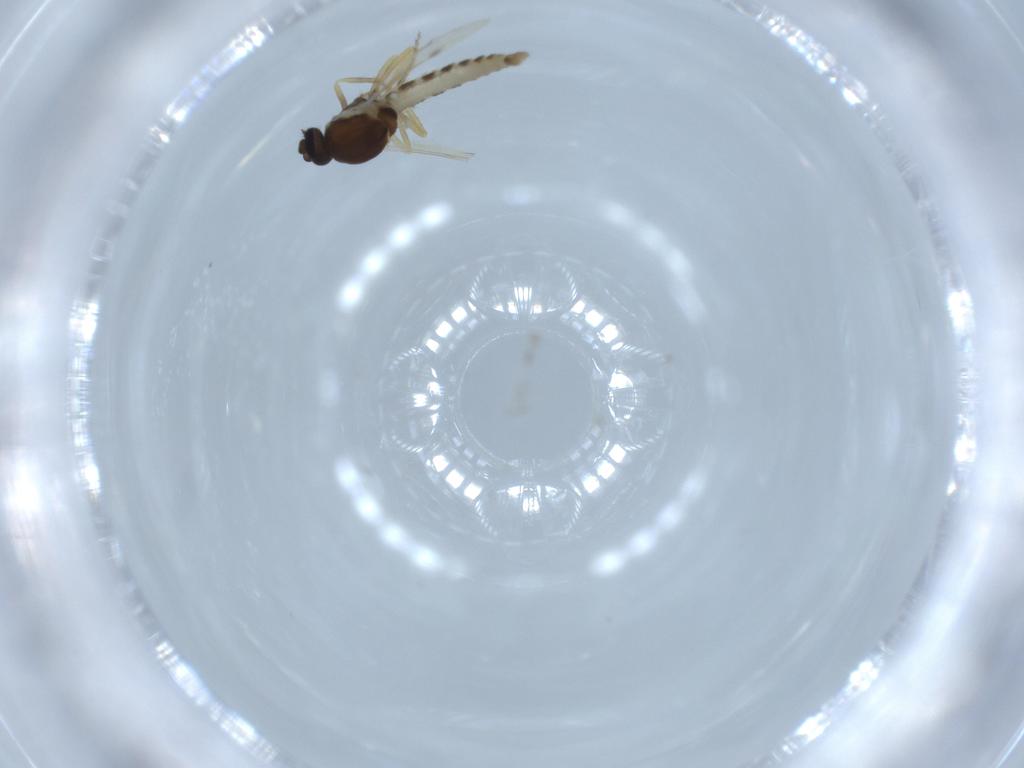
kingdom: Animalia
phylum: Arthropoda
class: Insecta
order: Diptera
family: Ceratopogonidae
